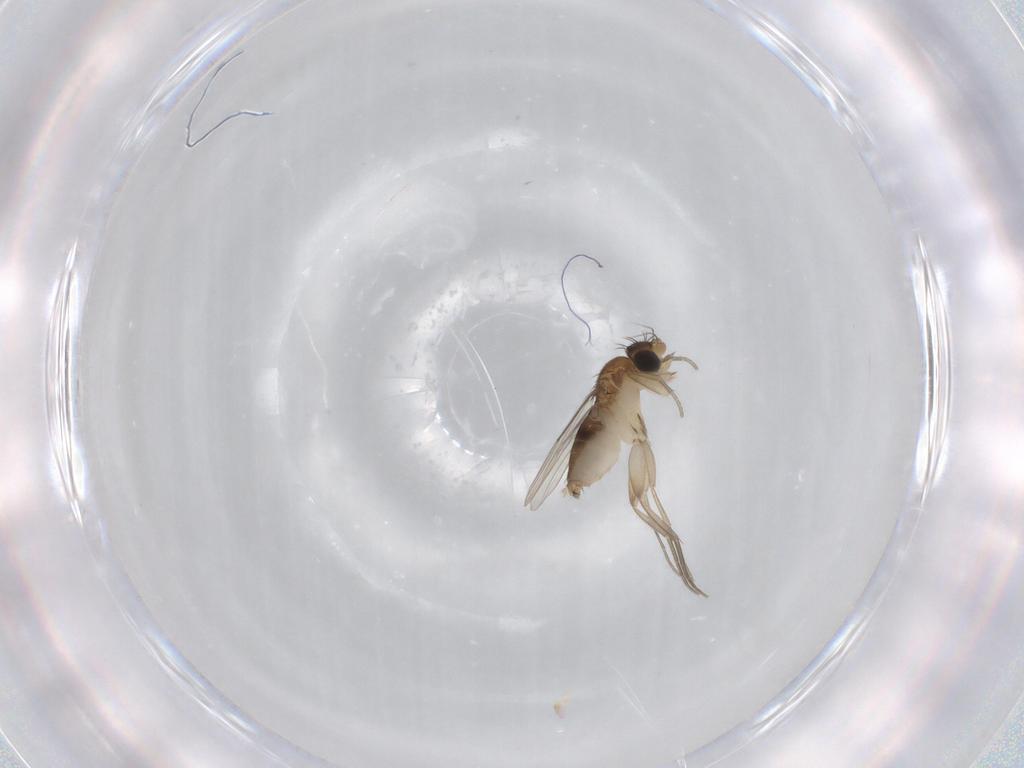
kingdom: Animalia
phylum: Arthropoda
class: Insecta
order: Diptera
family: Phoridae
